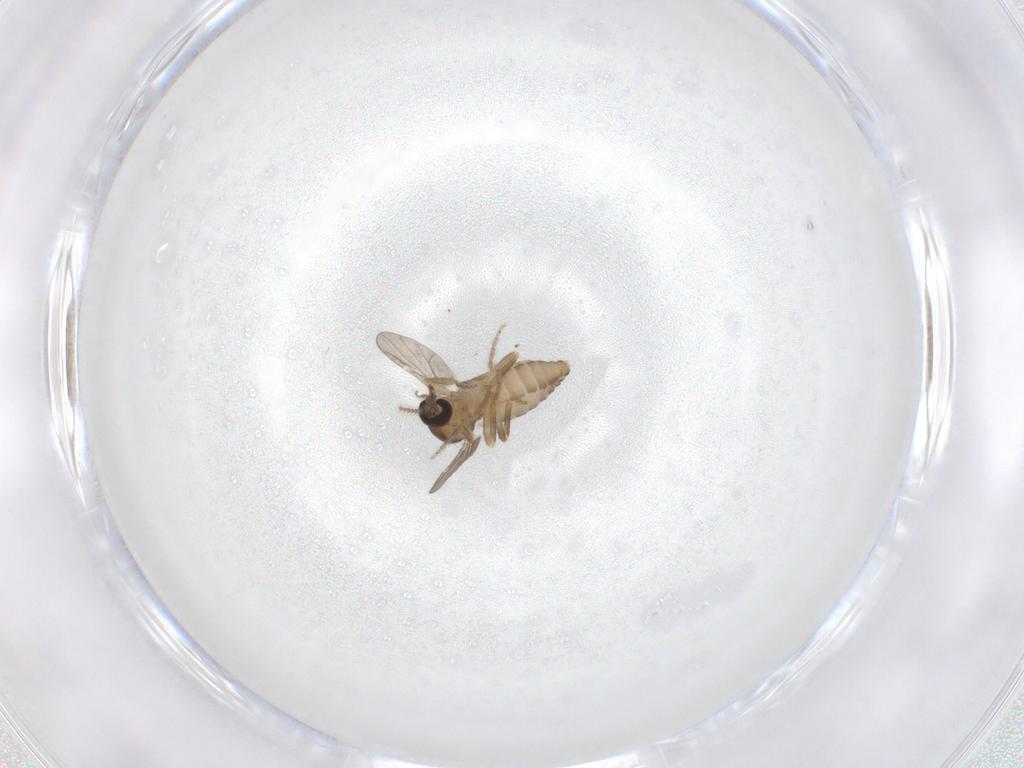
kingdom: Animalia
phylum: Arthropoda
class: Insecta
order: Diptera
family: Ceratopogonidae
